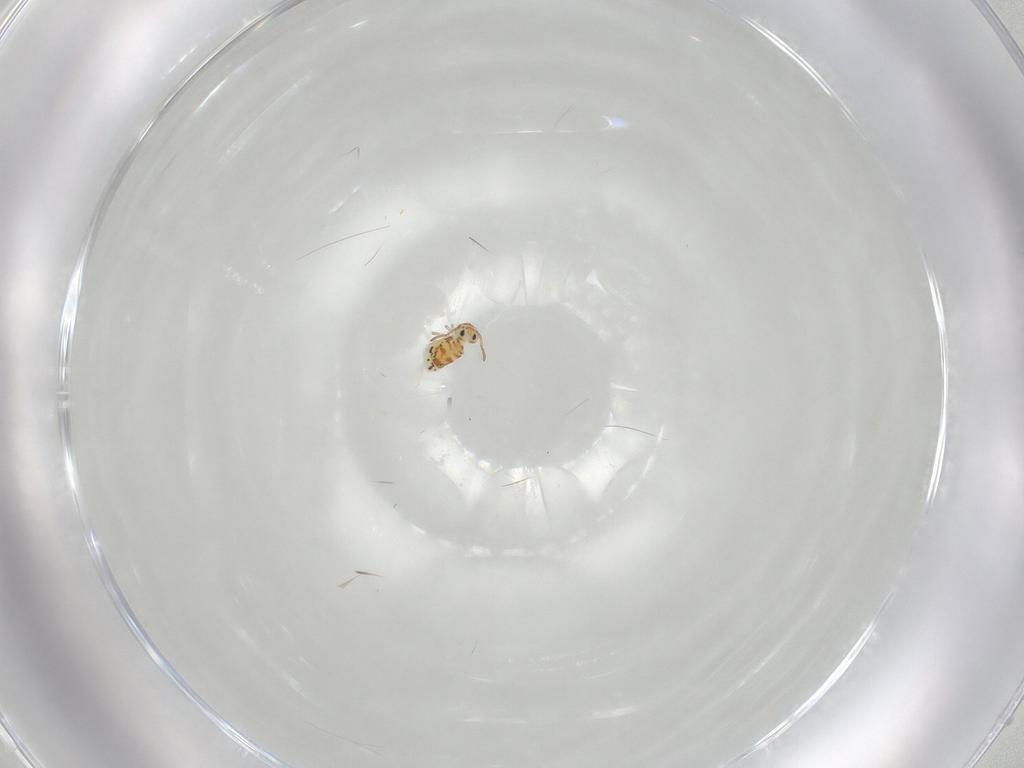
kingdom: Animalia
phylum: Arthropoda
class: Collembola
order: Symphypleona
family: Bourletiellidae
